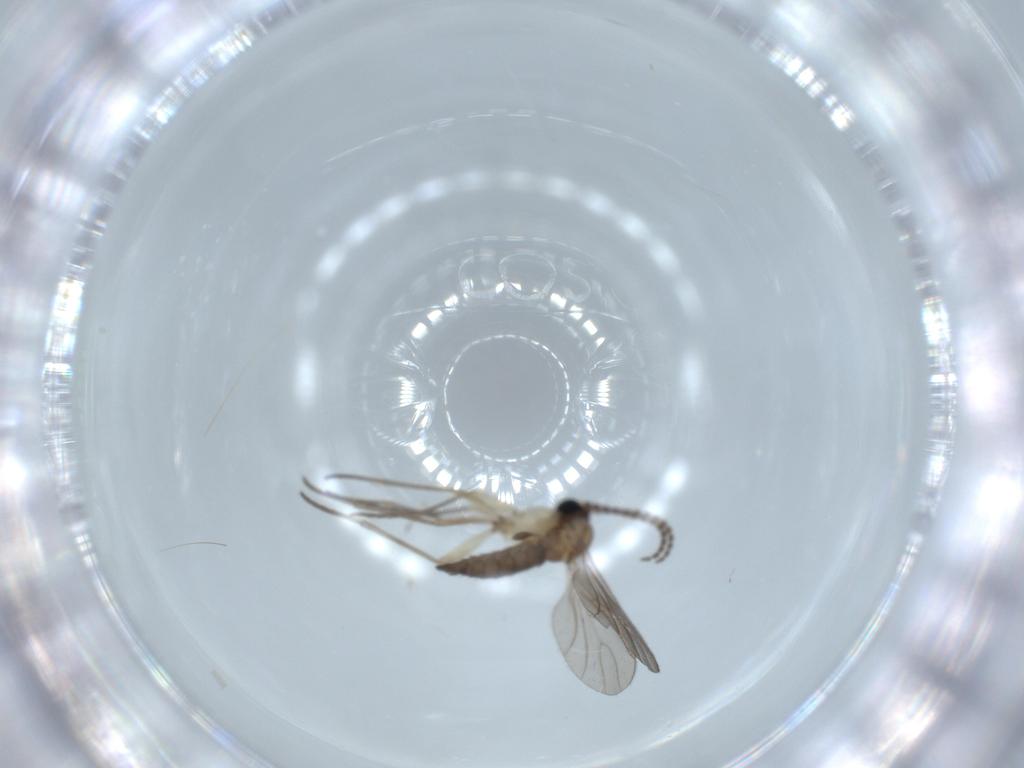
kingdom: Animalia
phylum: Arthropoda
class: Insecta
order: Diptera
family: Sciaridae
